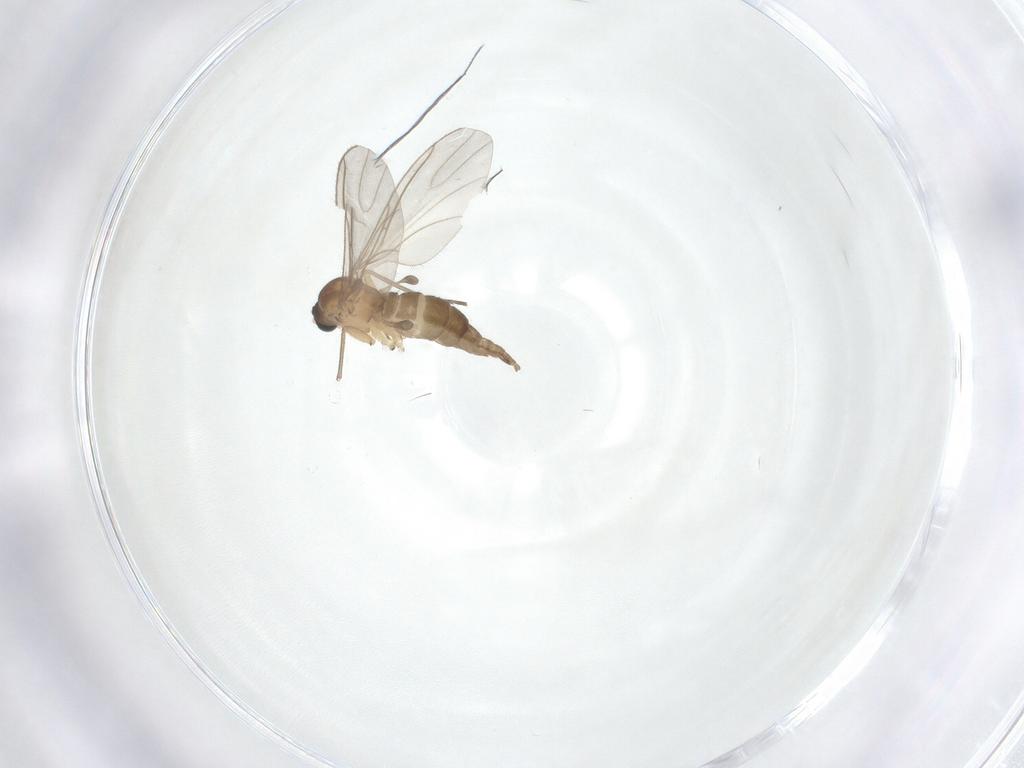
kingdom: Animalia
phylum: Arthropoda
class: Insecta
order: Diptera
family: Sciaridae
